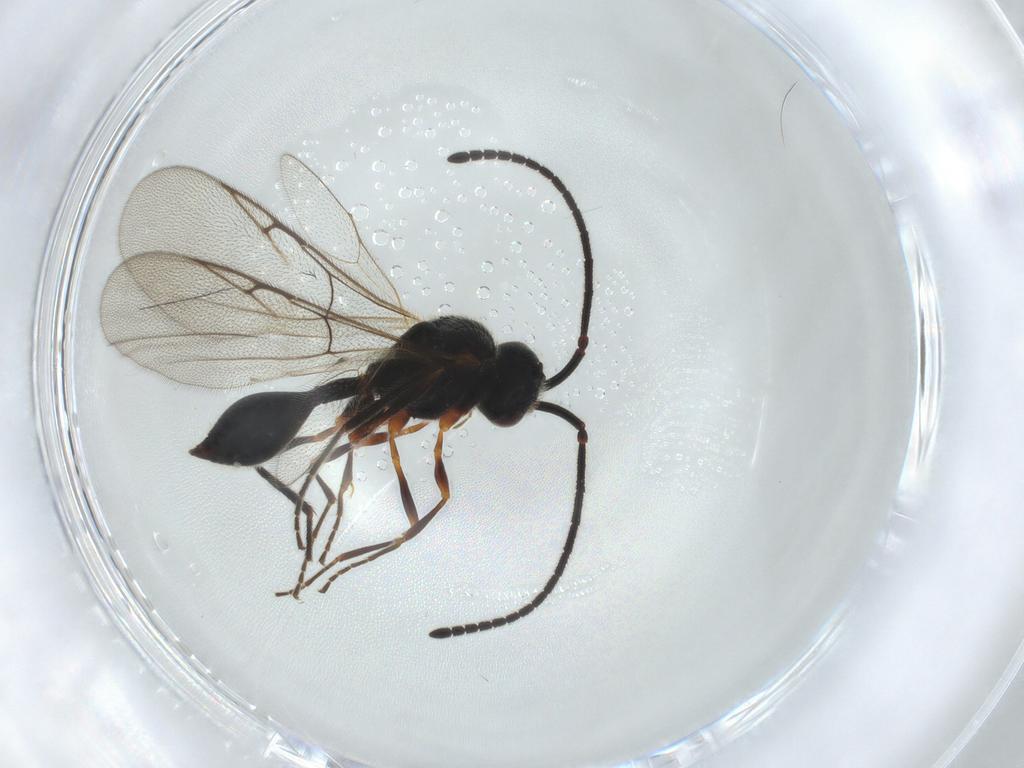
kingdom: Animalia
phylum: Arthropoda
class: Insecta
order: Hymenoptera
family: Diapriidae
